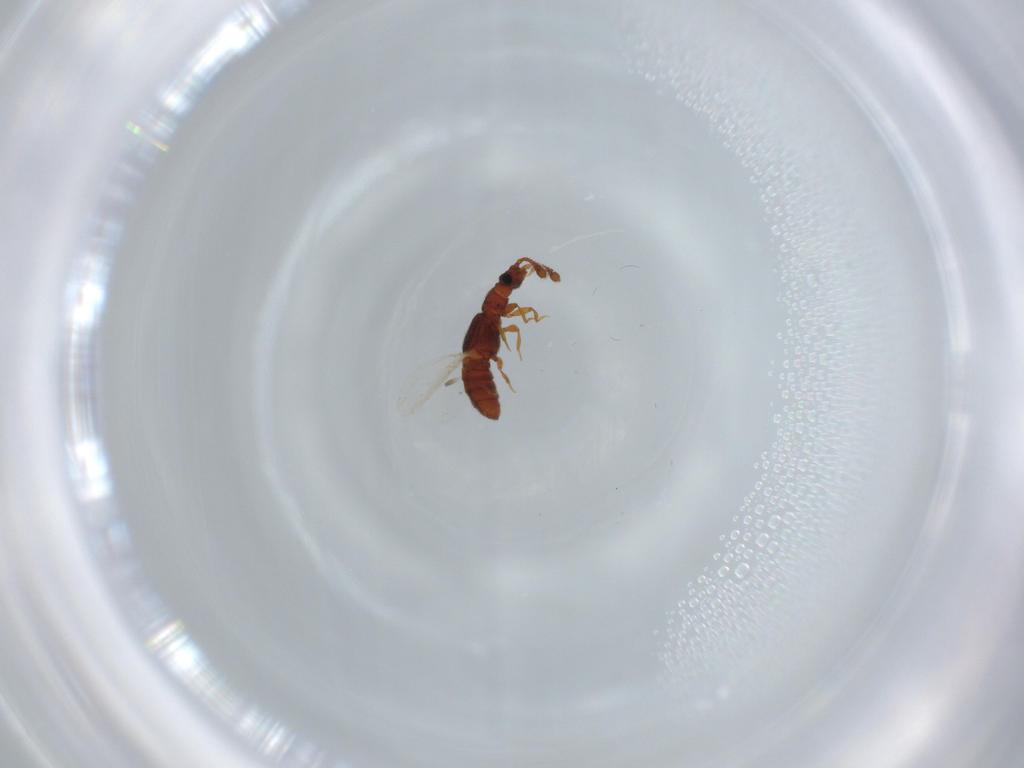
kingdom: Animalia
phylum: Arthropoda
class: Insecta
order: Coleoptera
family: Staphylinidae
